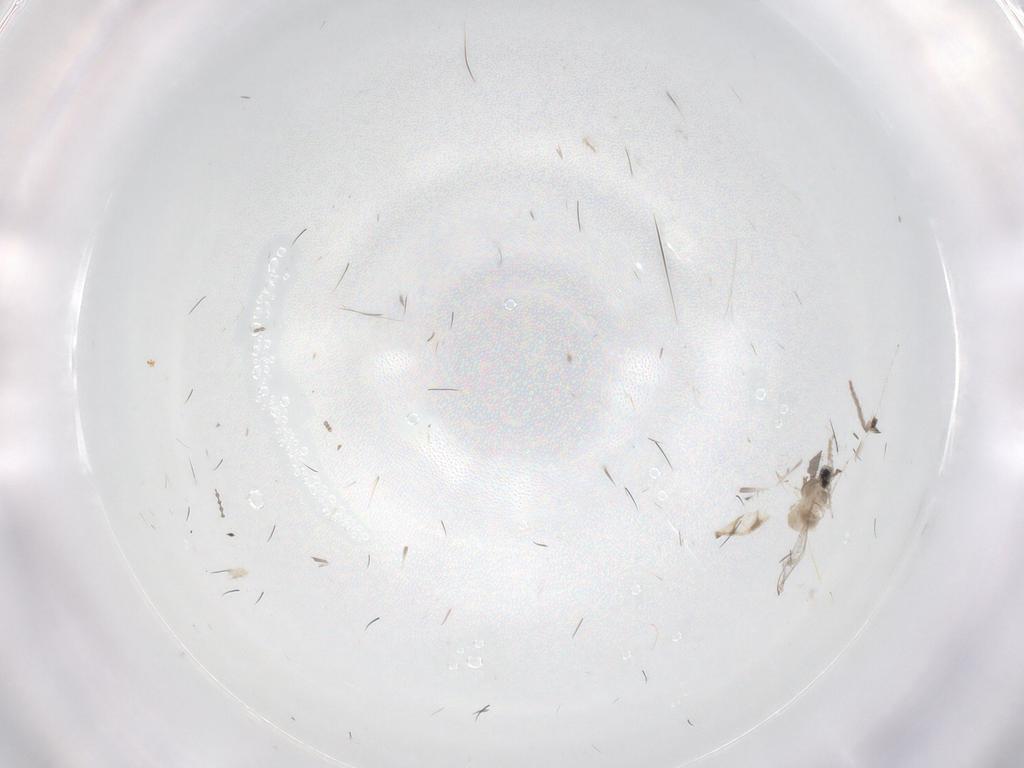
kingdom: Animalia
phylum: Arthropoda
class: Insecta
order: Diptera
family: Cecidomyiidae
